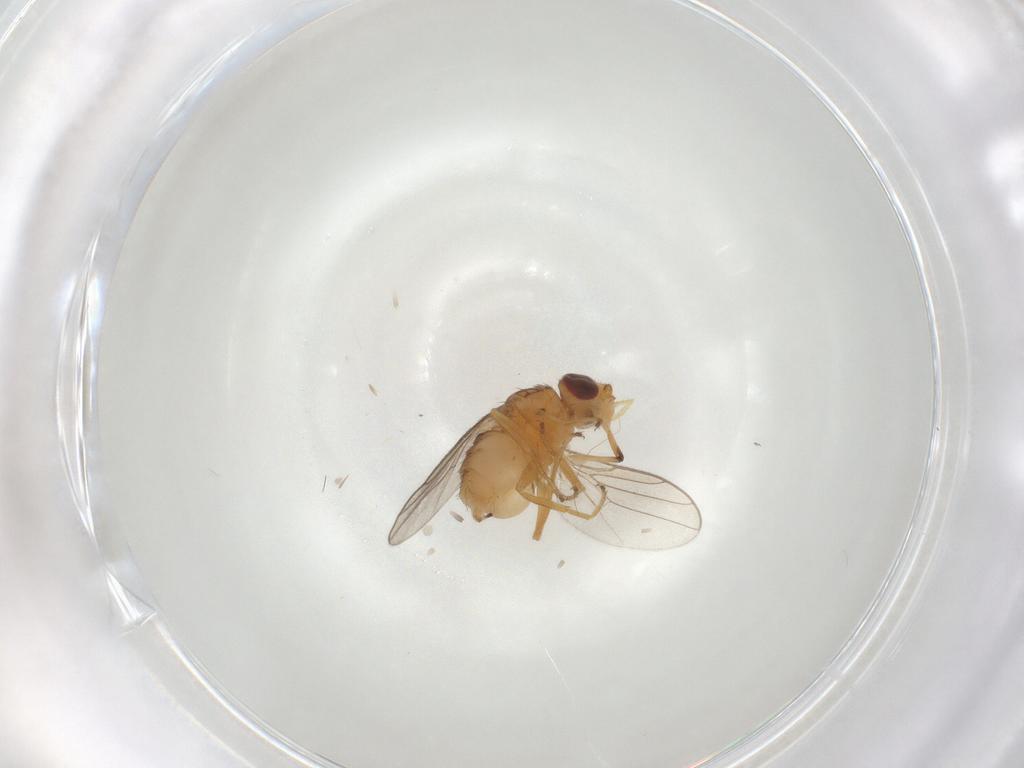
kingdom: Animalia
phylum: Arthropoda
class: Insecta
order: Diptera
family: Chloropidae
